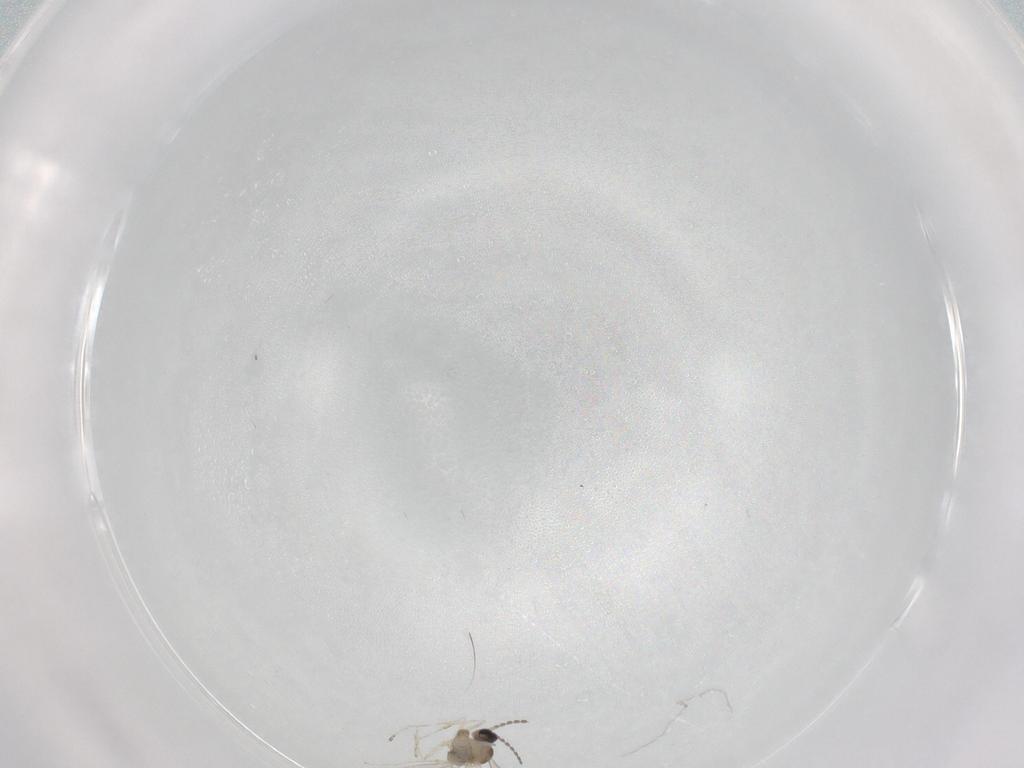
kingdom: Animalia
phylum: Arthropoda
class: Insecta
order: Diptera
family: Cecidomyiidae
